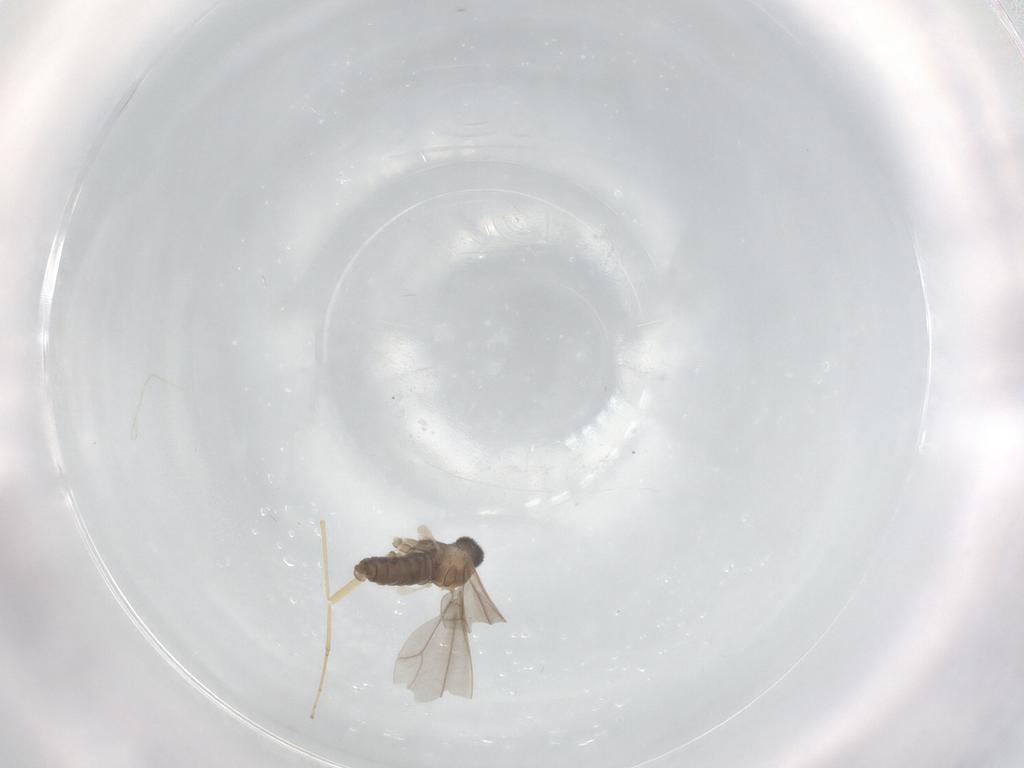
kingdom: Animalia
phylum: Arthropoda
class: Insecta
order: Diptera
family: Cecidomyiidae
